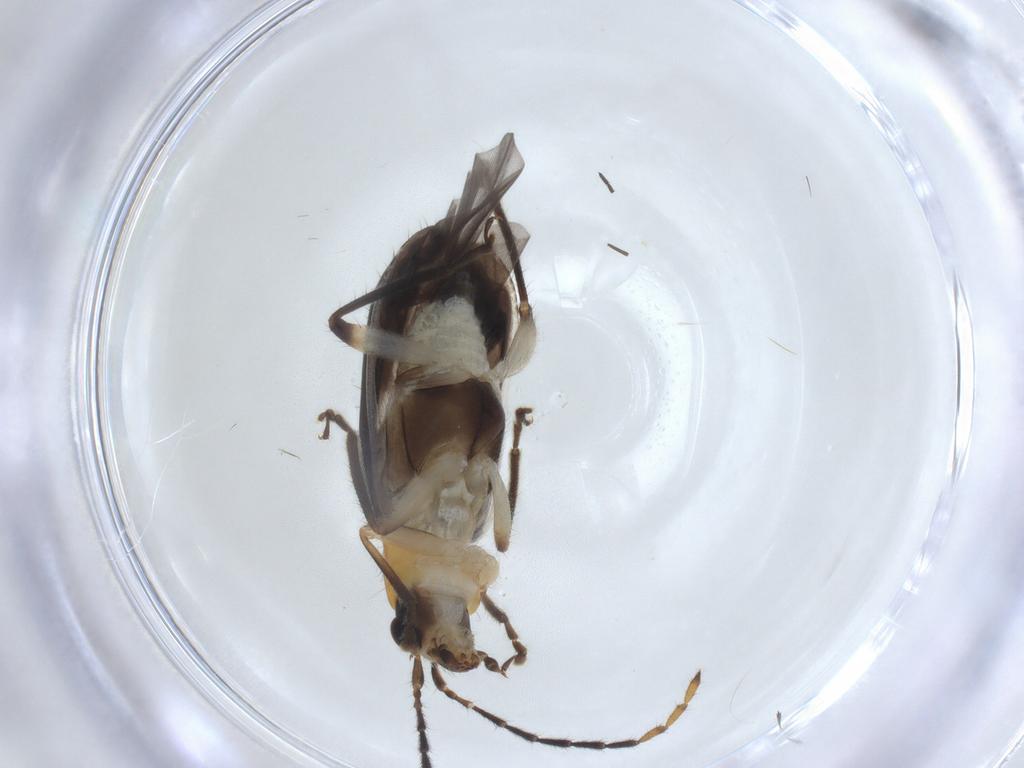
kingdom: Animalia
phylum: Arthropoda
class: Insecta
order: Coleoptera
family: Chrysomelidae
